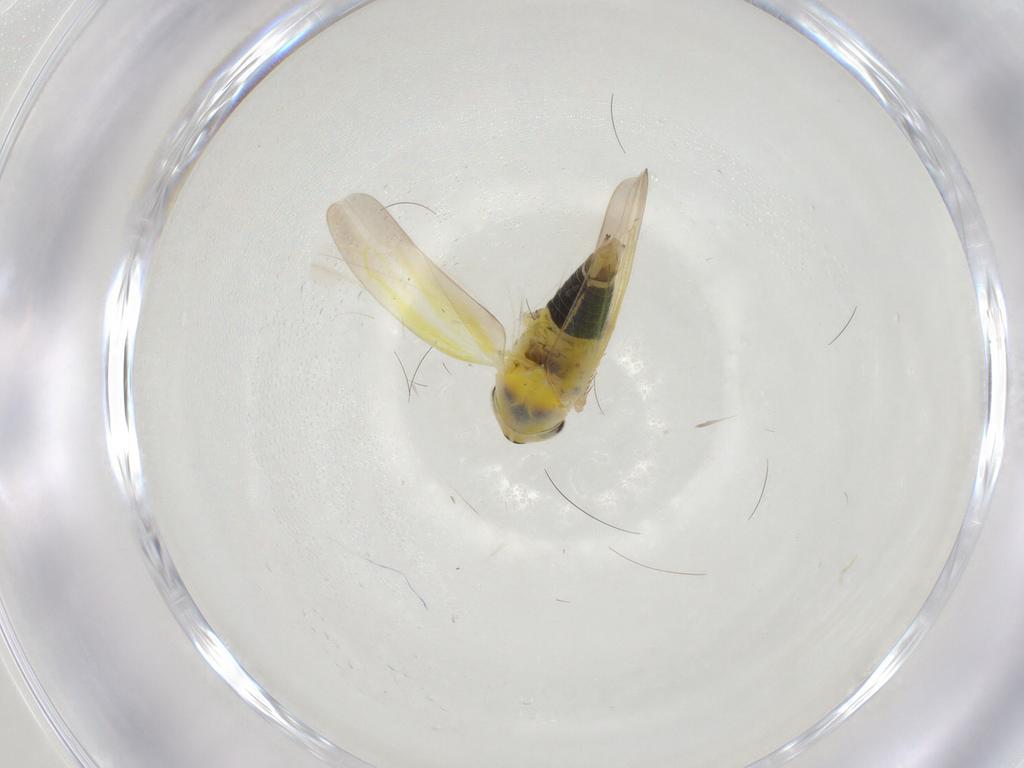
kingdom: Animalia
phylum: Arthropoda
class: Insecta
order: Hemiptera
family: Cicadellidae
